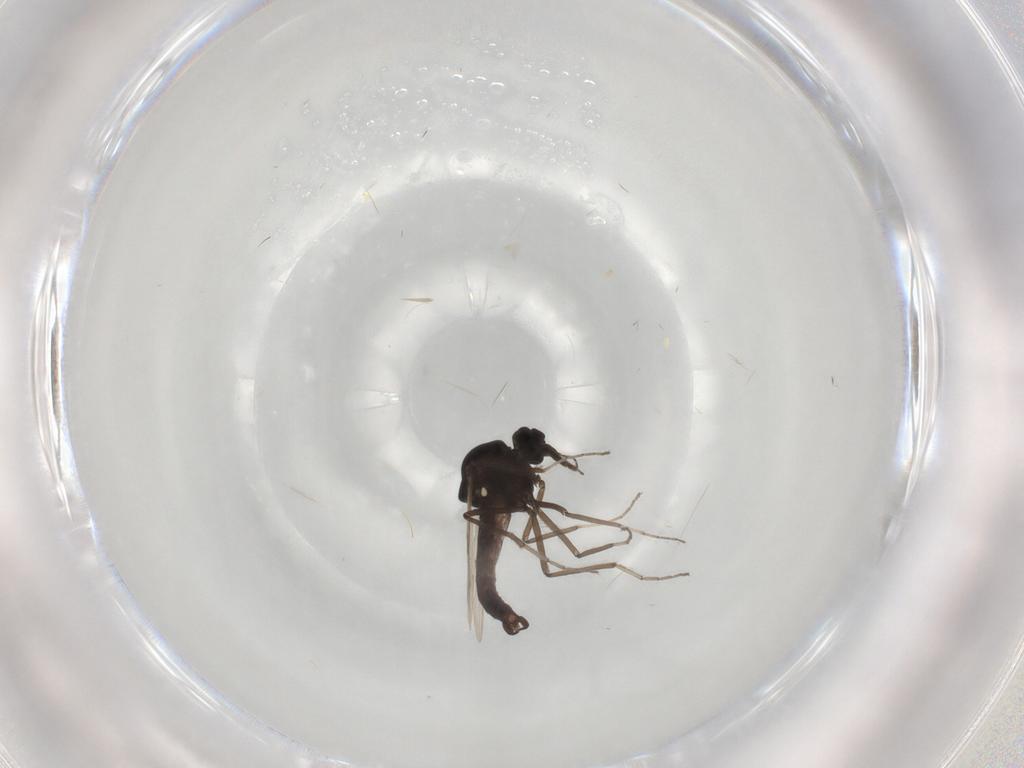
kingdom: Animalia
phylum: Arthropoda
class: Insecta
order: Diptera
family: Ceratopogonidae
